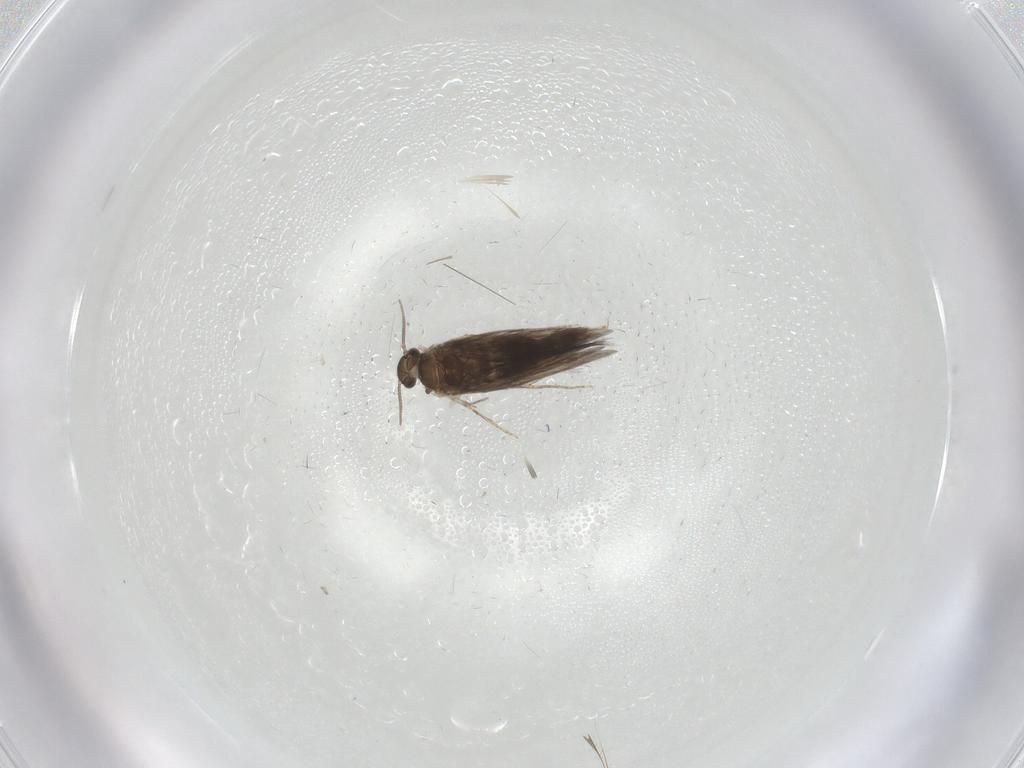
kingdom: Animalia
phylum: Arthropoda
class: Insecta
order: Trichoptera
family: Hydroptilidae
